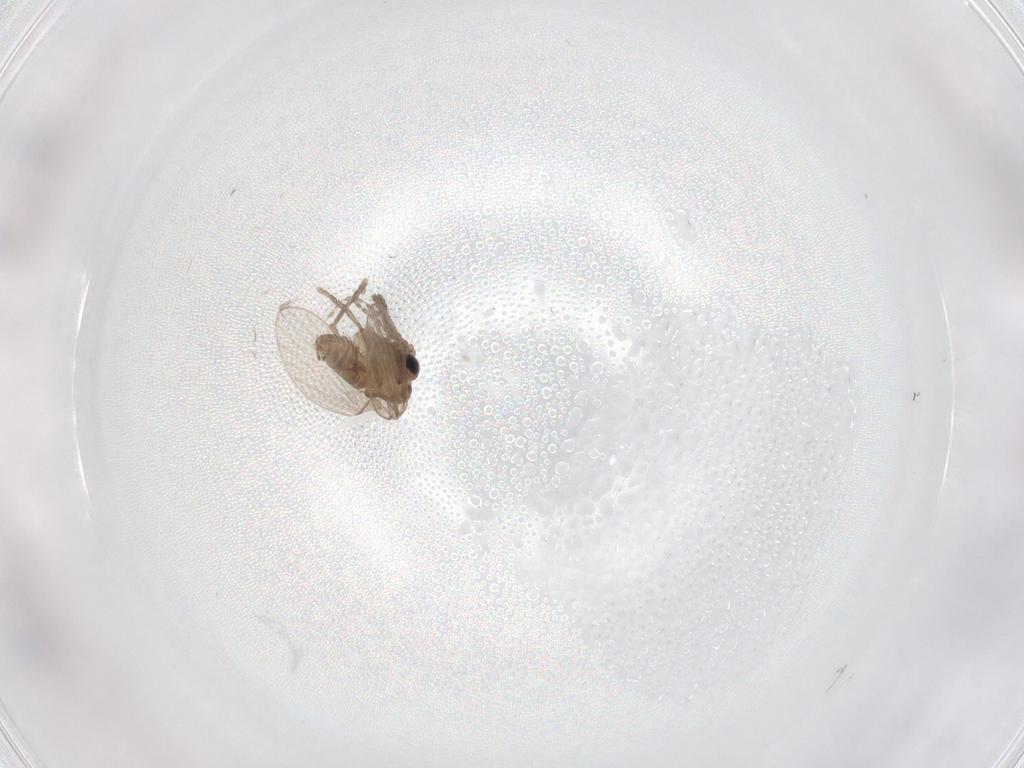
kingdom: Animalia
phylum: Arthropoda
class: Insecta
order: Diptera
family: Psychodidae
